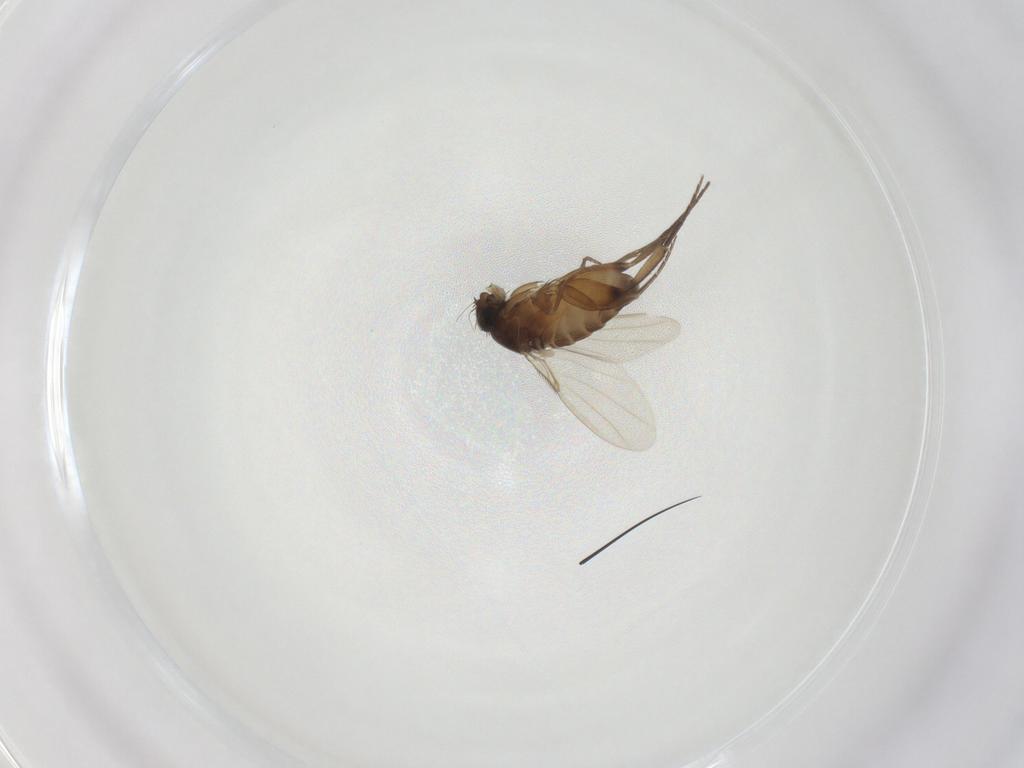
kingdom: Animalia
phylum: Arthropoda
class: Insecta
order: Diptera
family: Phoridae
